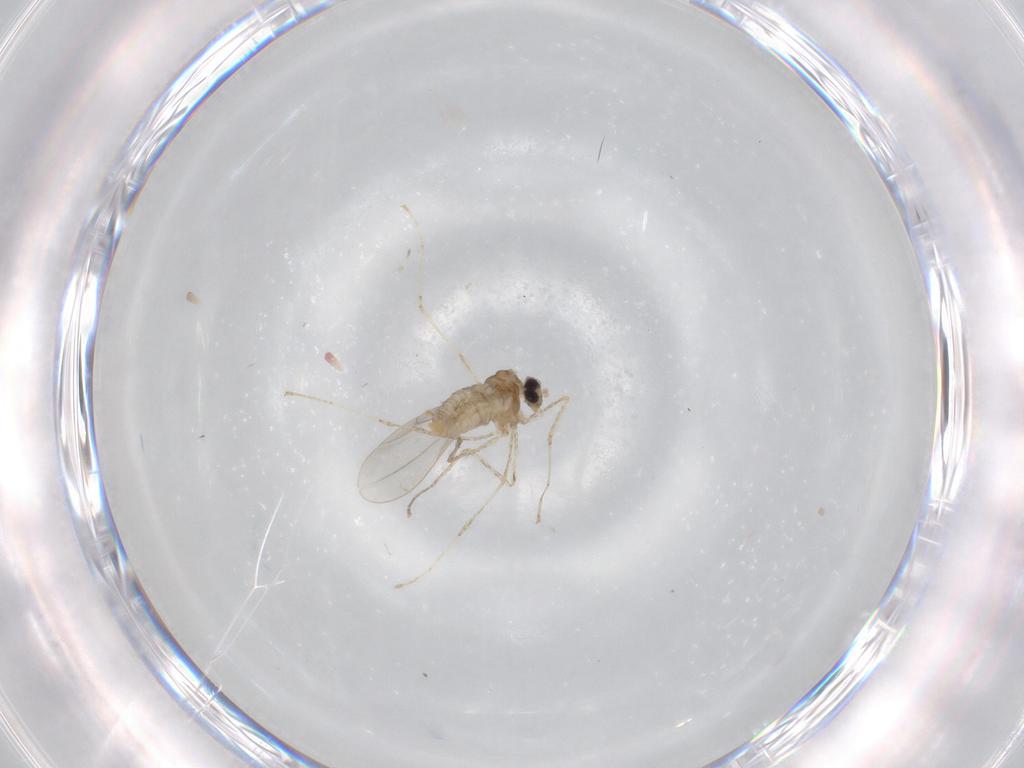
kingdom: Animalia
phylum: Arthropoda
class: Insecta
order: Diptera
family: Cecidomyiidae
